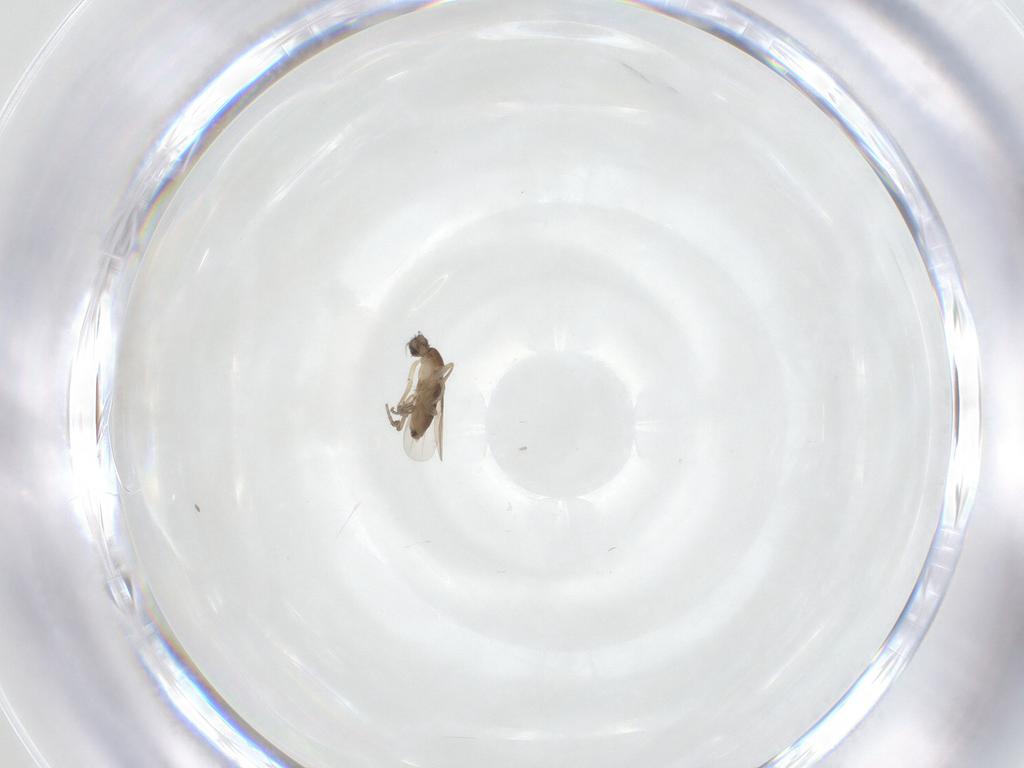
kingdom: Animalia
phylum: Arthropoda
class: Insecta
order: Diptera
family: Phoridae
